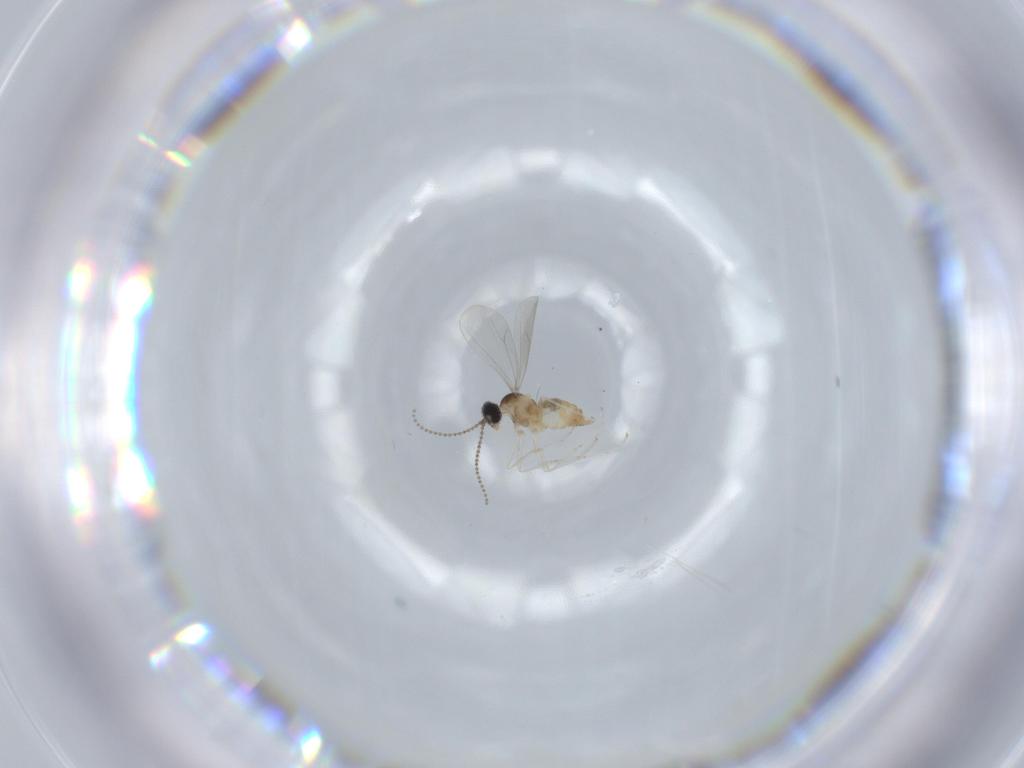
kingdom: Animalia
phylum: Arthropoda
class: Insecta
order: Diptera
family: Cecidomyiidae
